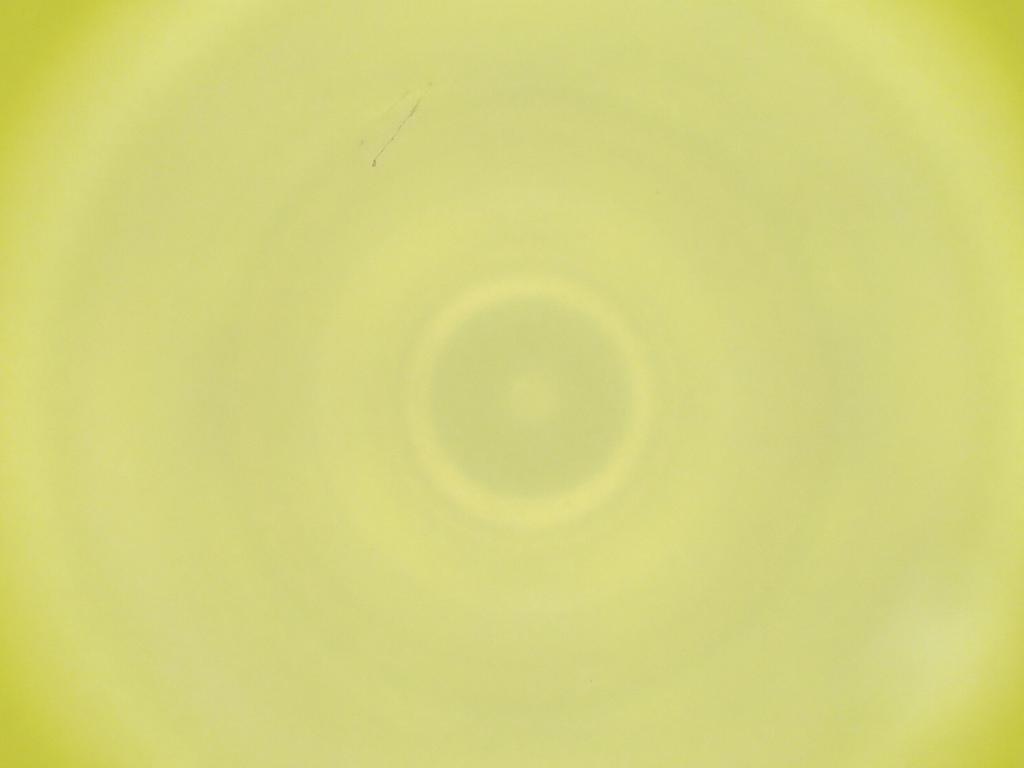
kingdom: Animalia
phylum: Arthropoda
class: Insecta
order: Diptera
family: Cecidomyiidae
